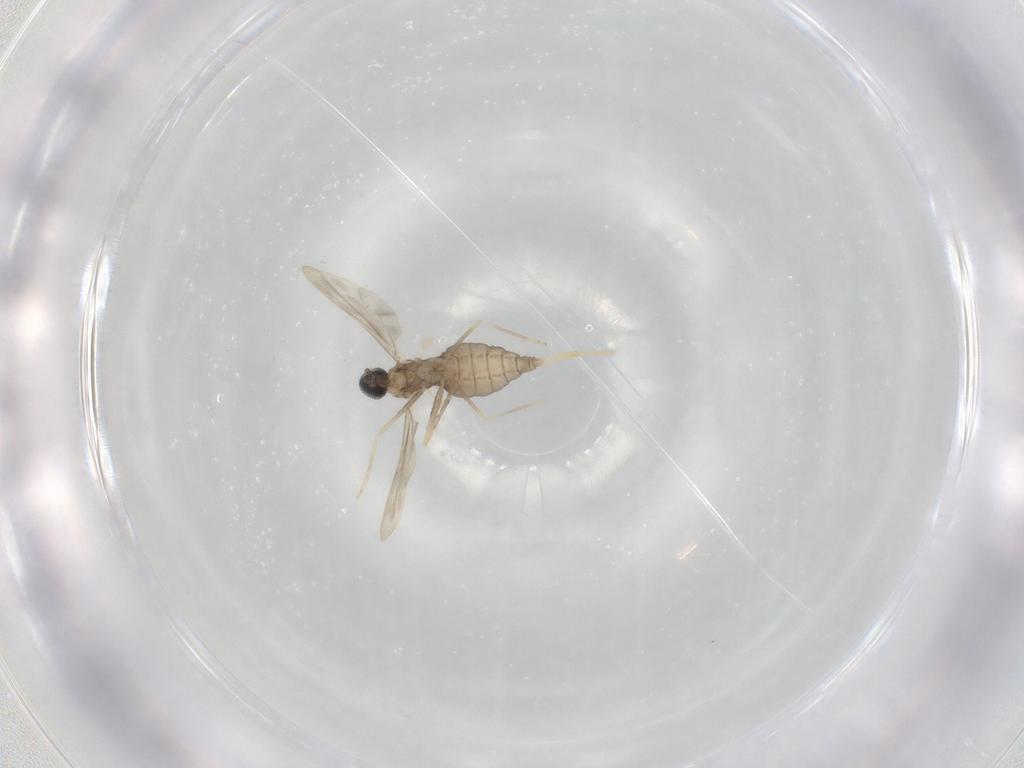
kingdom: Animalia
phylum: Arthropoda
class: Insecta
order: Diptera
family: Cecidomyiidae
